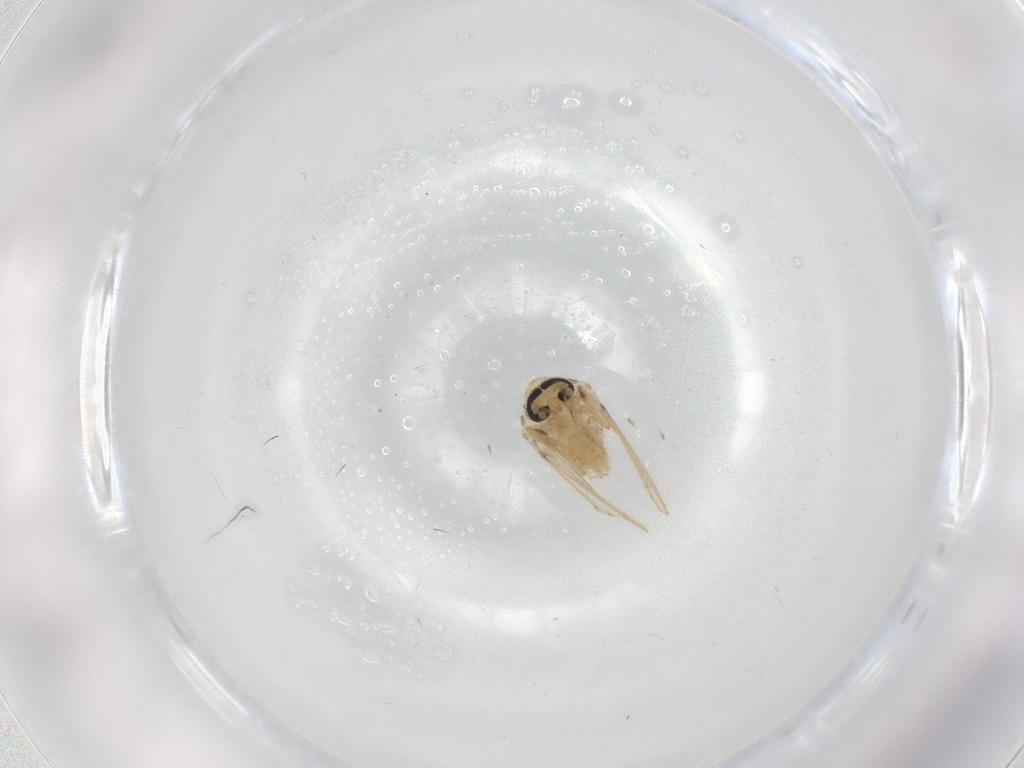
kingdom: Animalia
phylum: Arthropoda
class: Insecta
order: Diptera
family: Psychodidae
